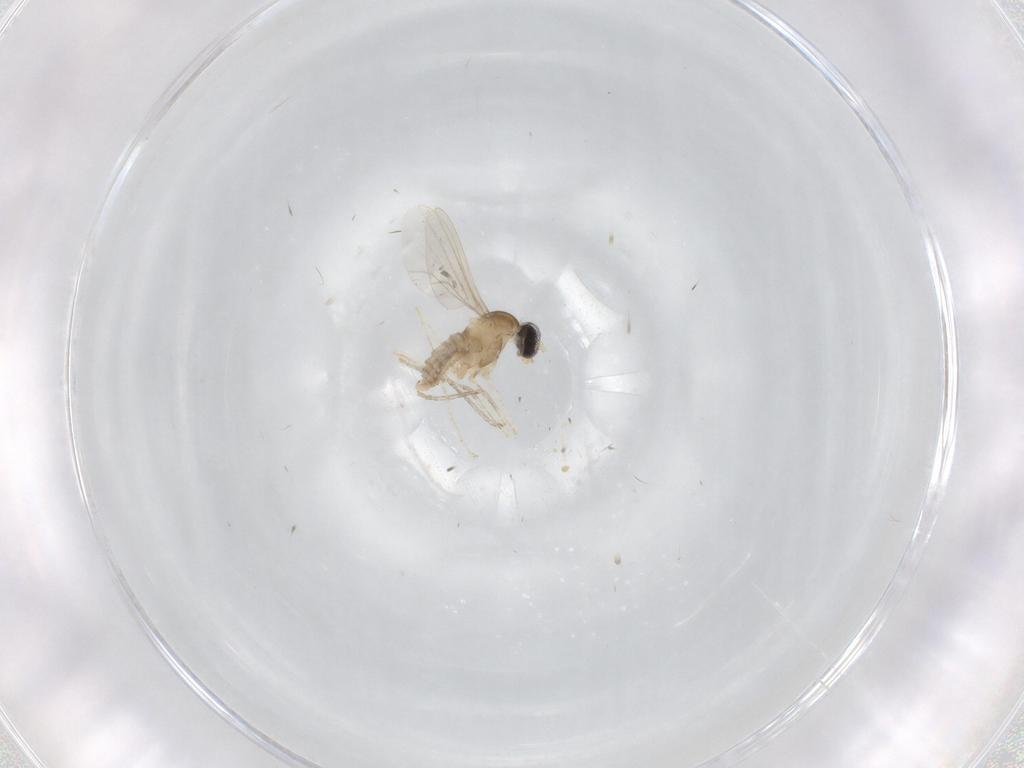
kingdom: Animalia
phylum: Arthropoda
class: Insecta
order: Diptera
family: Cecidomyiidae
